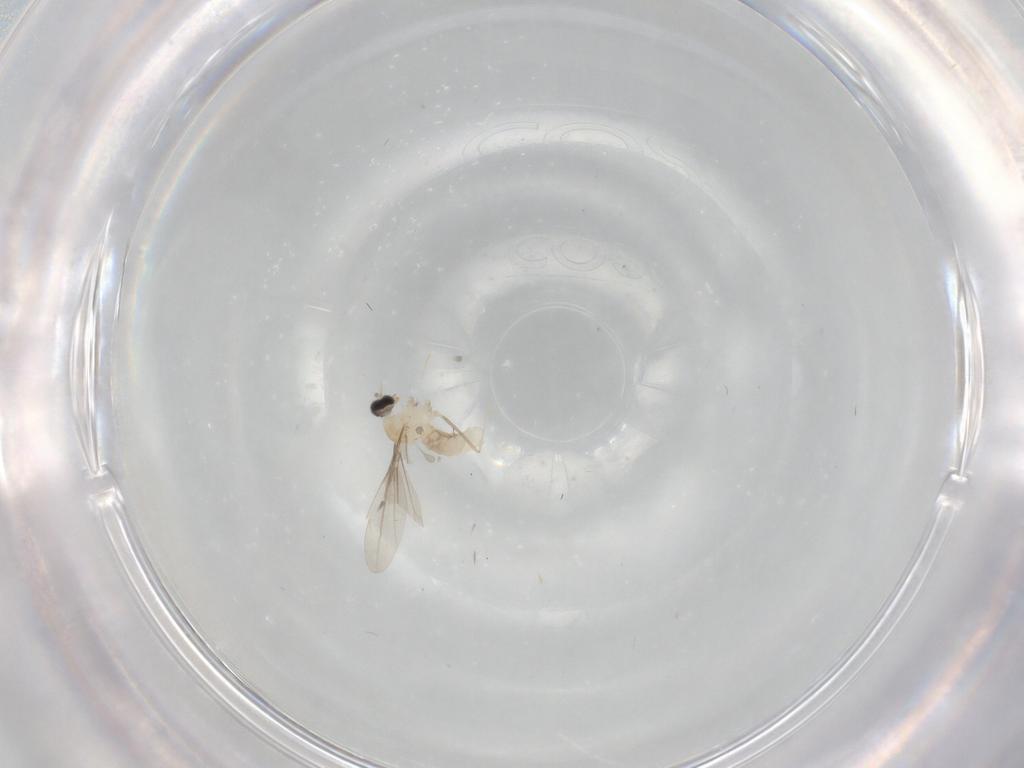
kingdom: Animalia
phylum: Arthropoda
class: Insecta
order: Diptera
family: Cecidomyiidae
